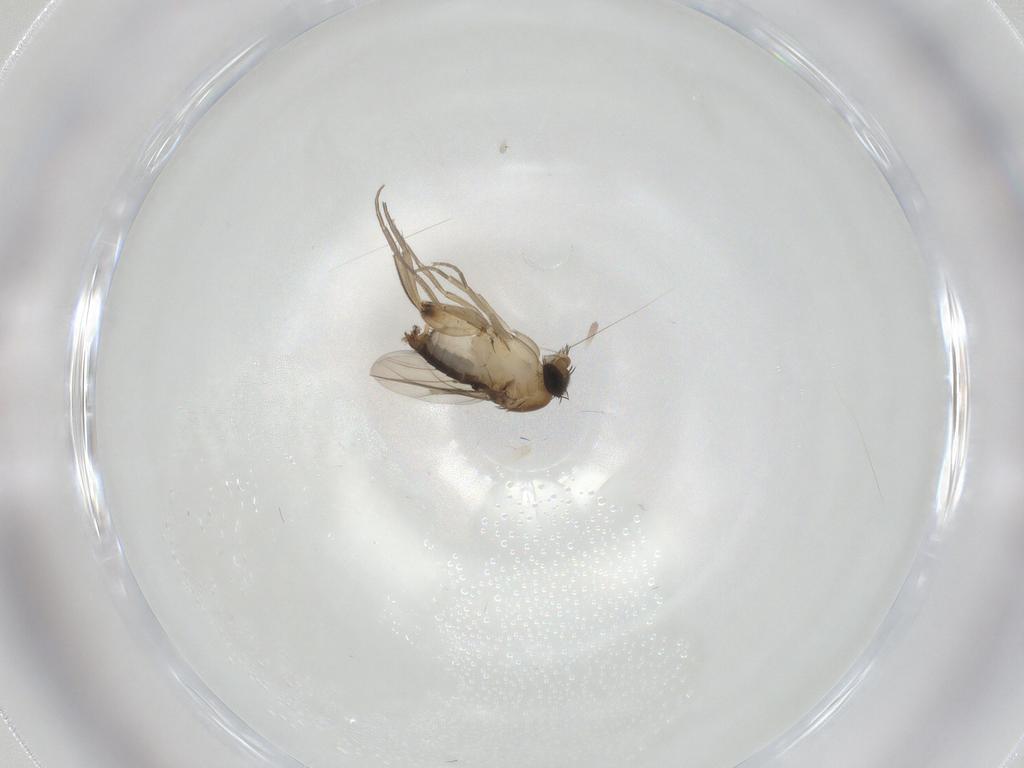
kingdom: Animalia
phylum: Arthropoda
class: Insecta
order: Diptera
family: Phoridae
